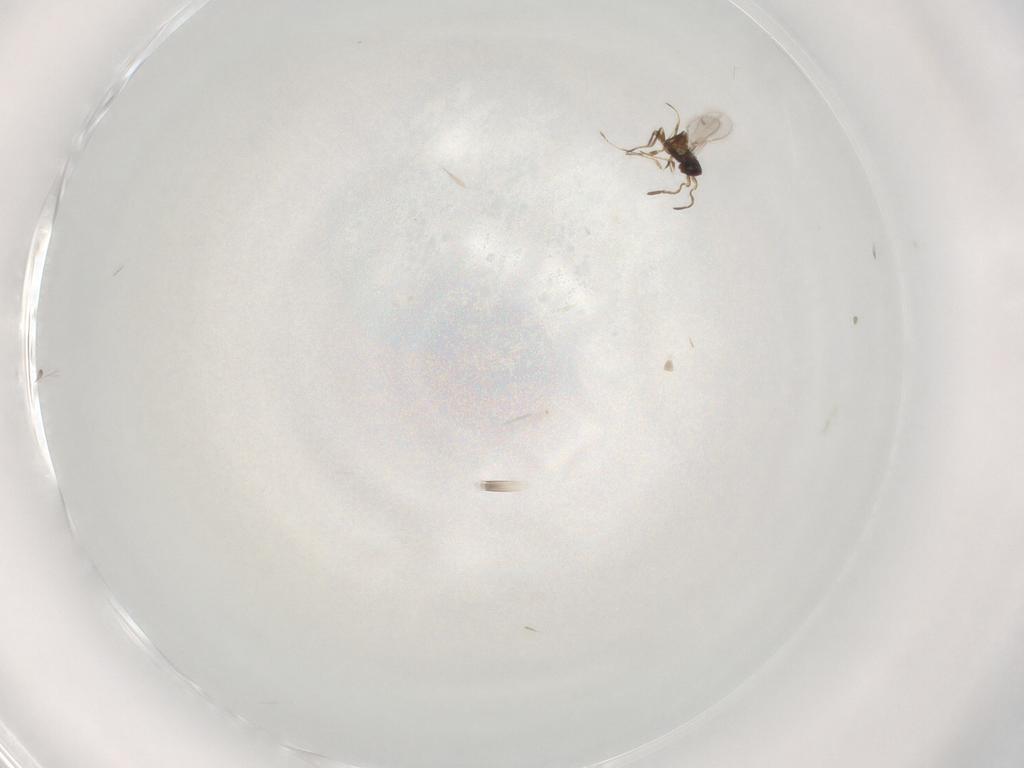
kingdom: Animalia
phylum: Arthropoda
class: Insecta
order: Hymenoptera
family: Mymaridae
